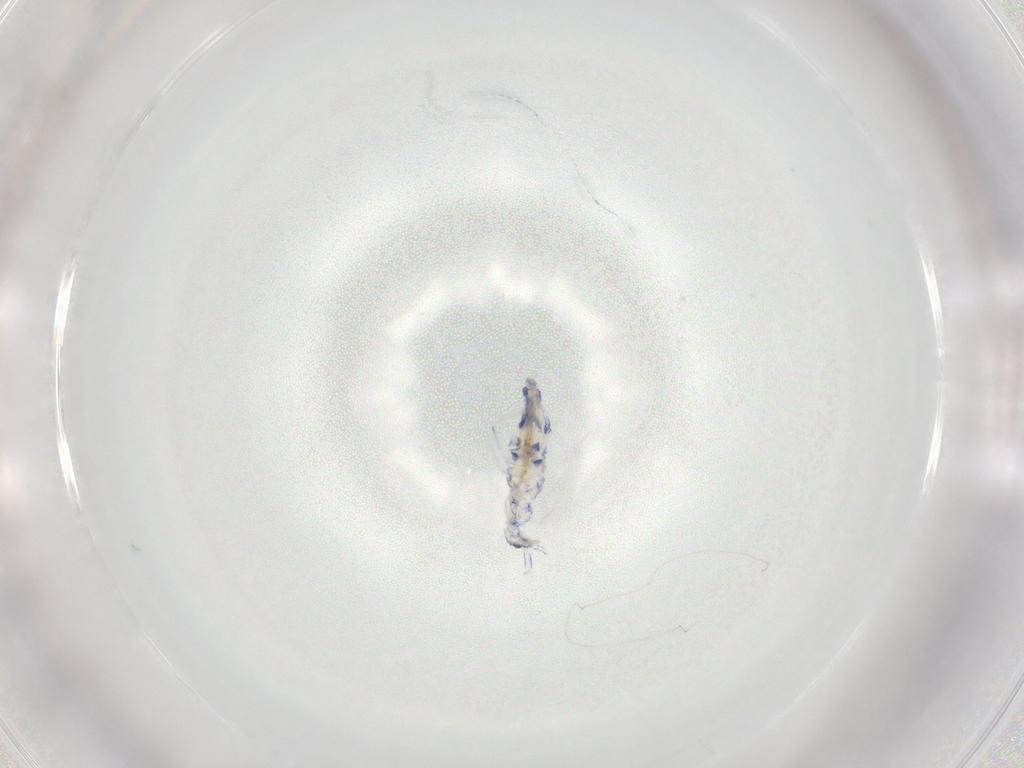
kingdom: Animalia
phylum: Arthropoda
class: Collembola
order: Entomobryomorpha
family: Entomobryidae
